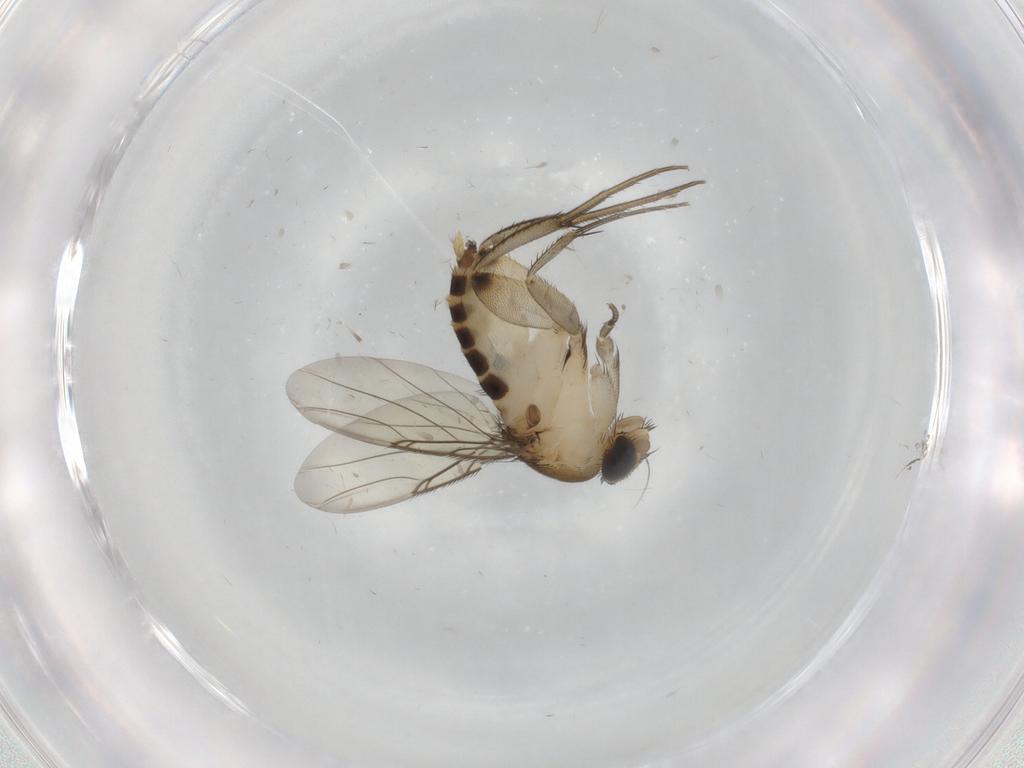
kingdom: Animalia
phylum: Arthropoda
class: Insecta
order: Diptera
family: Phoridae
